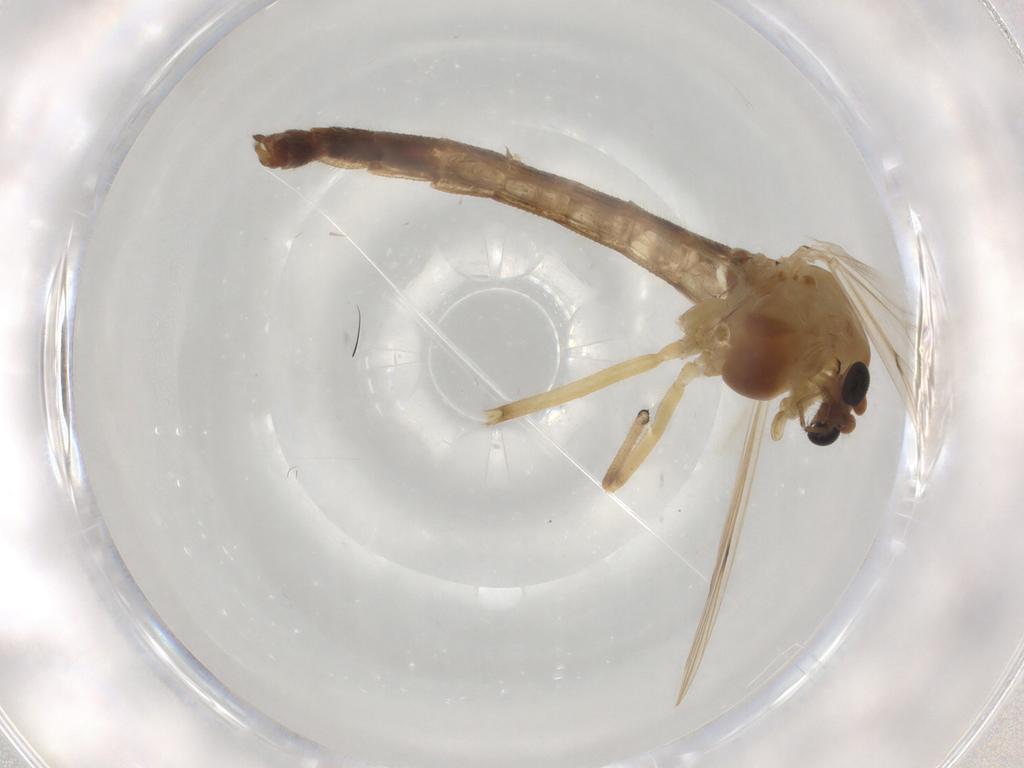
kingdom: Animalia
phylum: Arthropoda
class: Insecta
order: Diptera
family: Chironomidae
